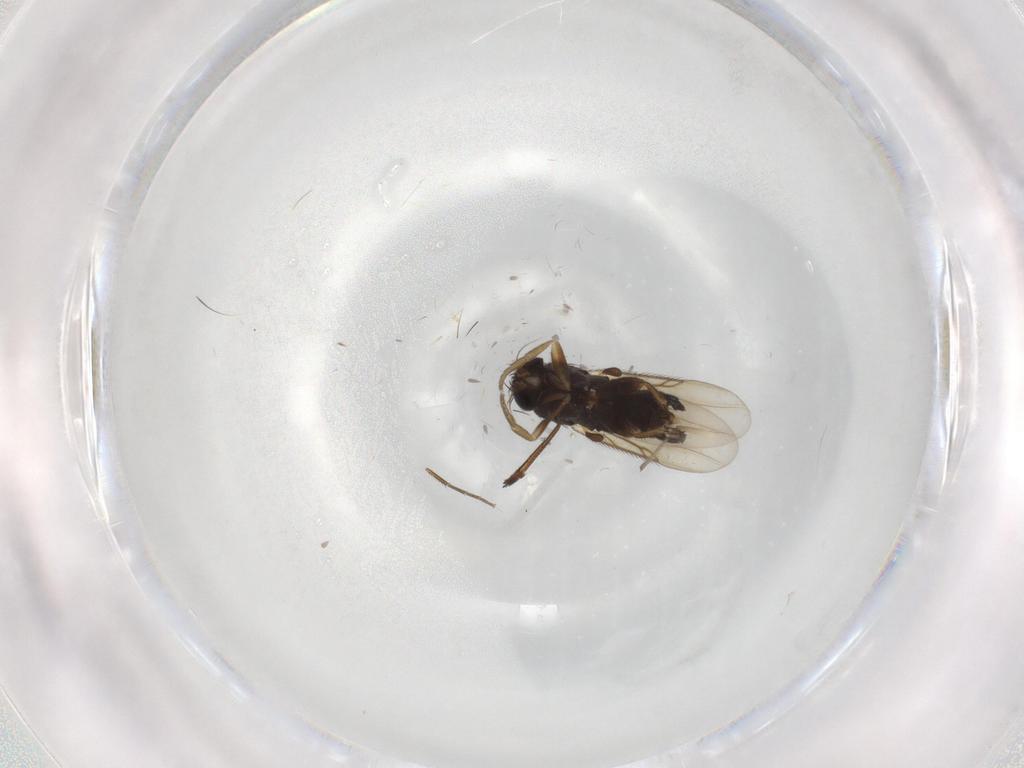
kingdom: Animalia
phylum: Arthropoda
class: Insecta
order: Diptera
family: Phoridae
